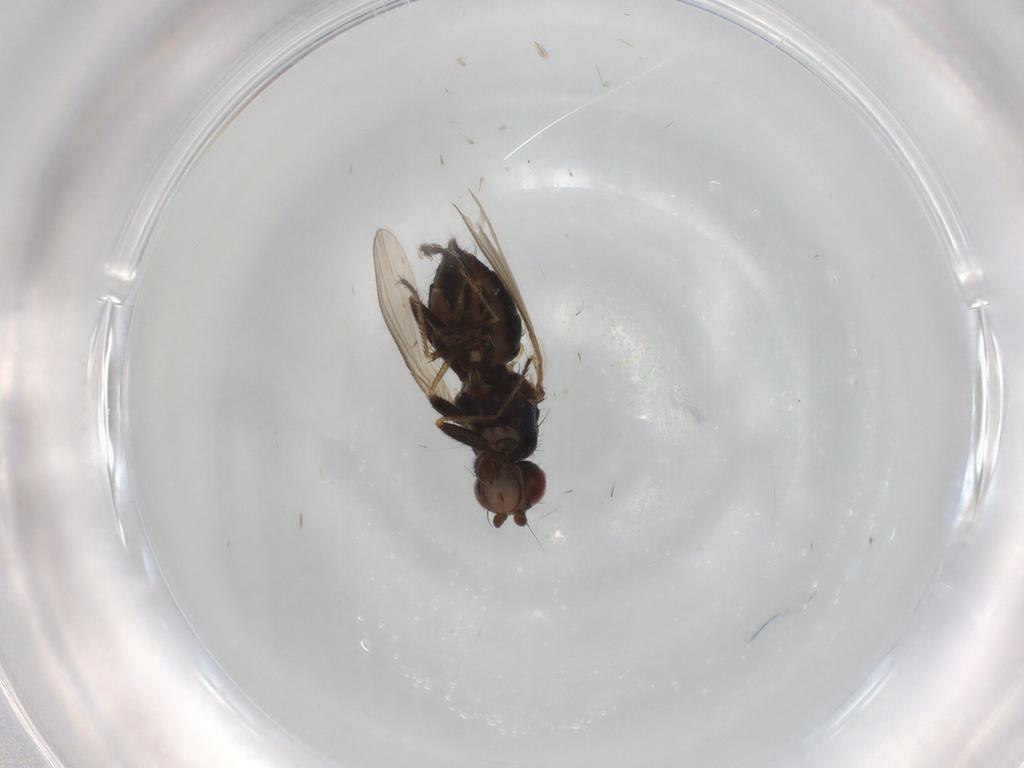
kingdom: Animalia
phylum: Arthropoda
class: Insecta
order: Diptera
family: Sphaeroceridae
